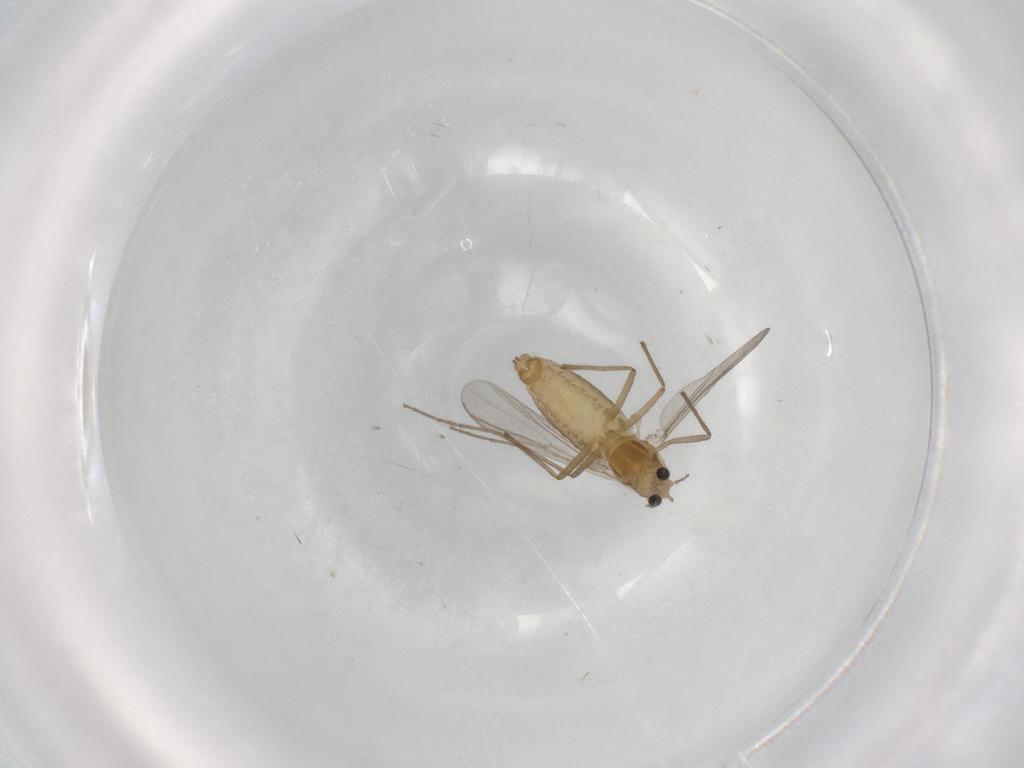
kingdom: Animalia
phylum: Arthropoda
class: Insecta
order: Diptera
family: Chironomidae
